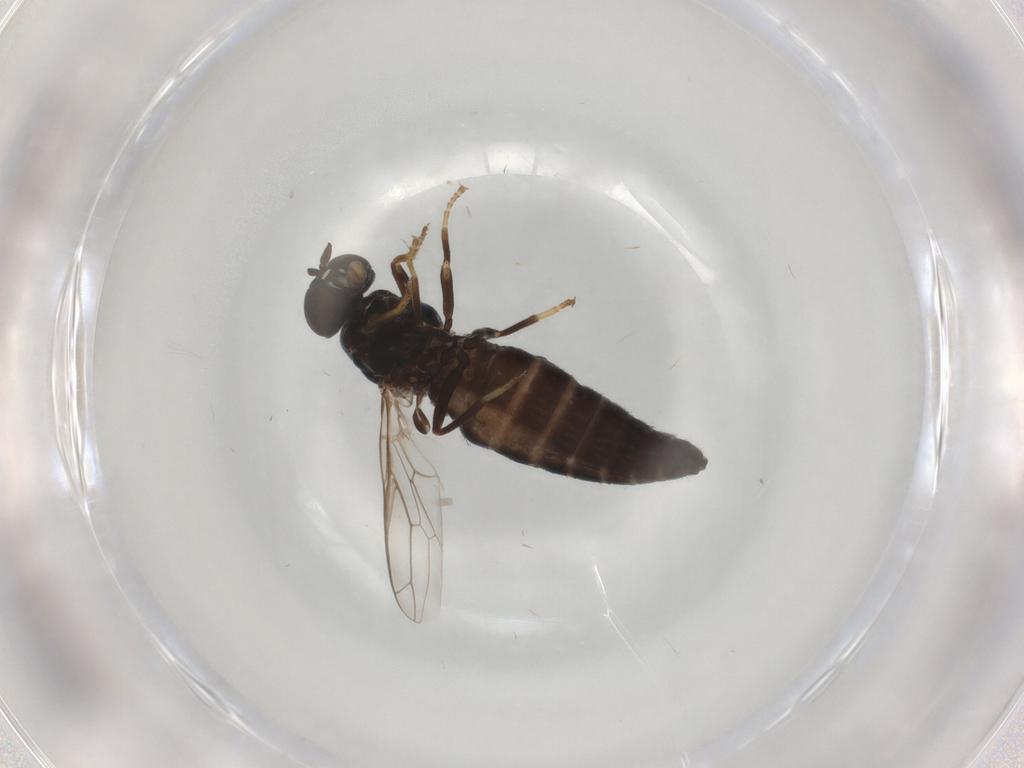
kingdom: Animalia
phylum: Arthropoda
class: Insecta
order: Diptera
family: Scenopinidae
